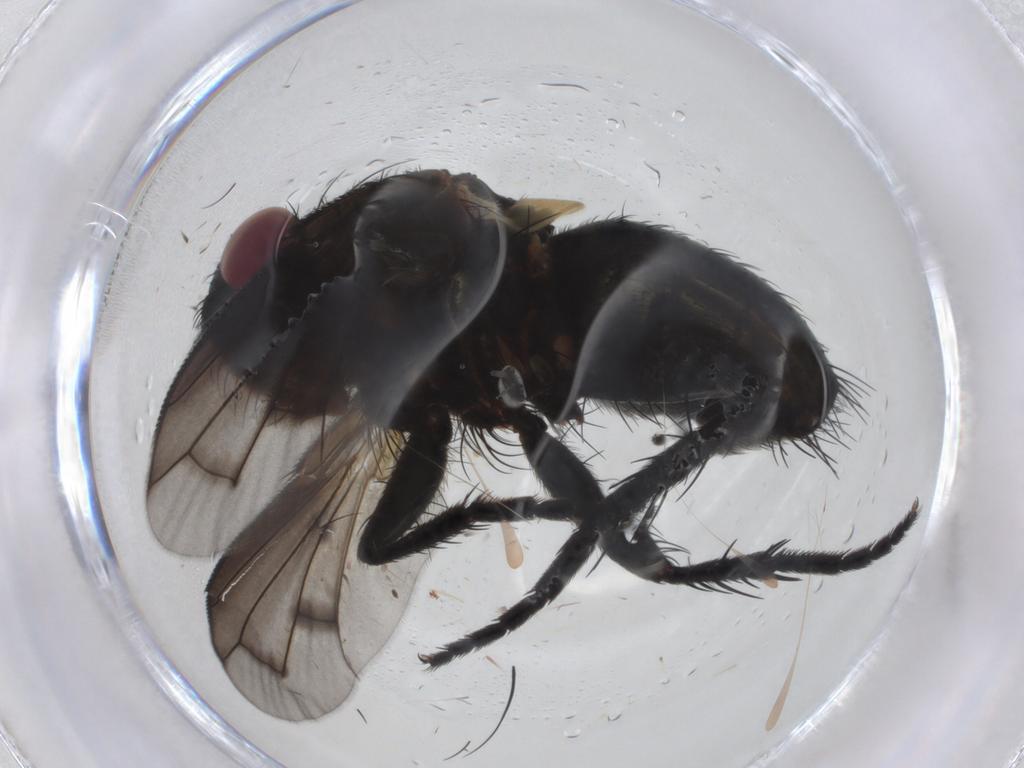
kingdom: Animalia
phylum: Arthropoda
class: Insecta
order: Diptera
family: Tachinidae
